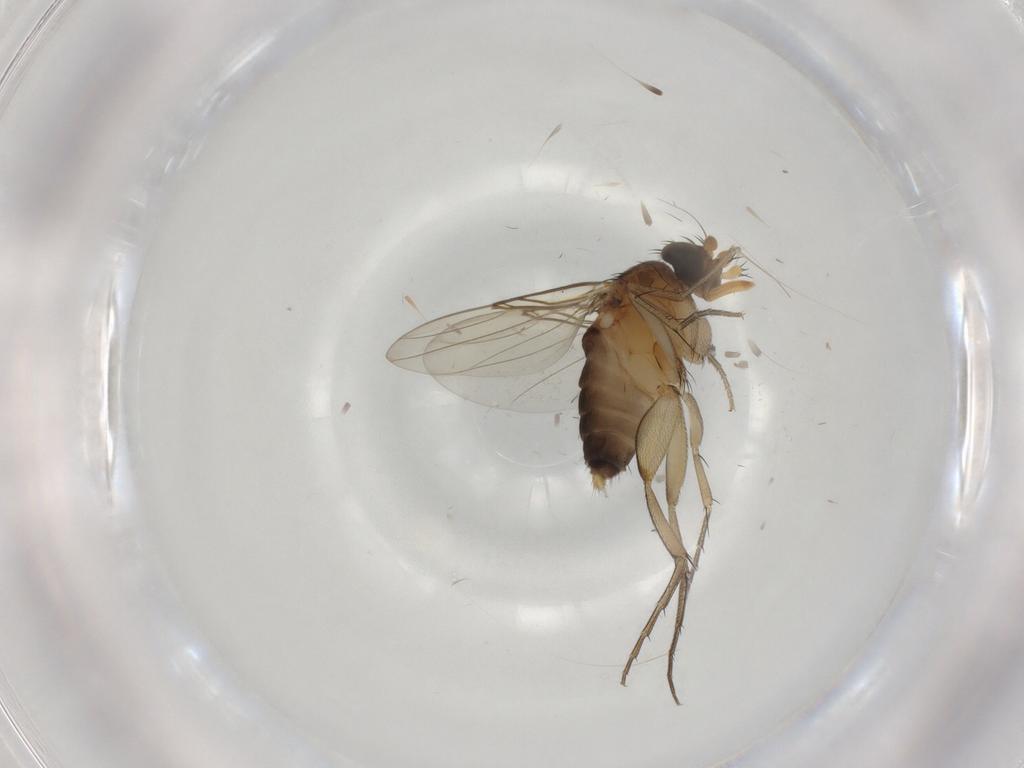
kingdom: Animalia
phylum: Arthropoda
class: Insecta
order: Diptera
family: Phoridae
